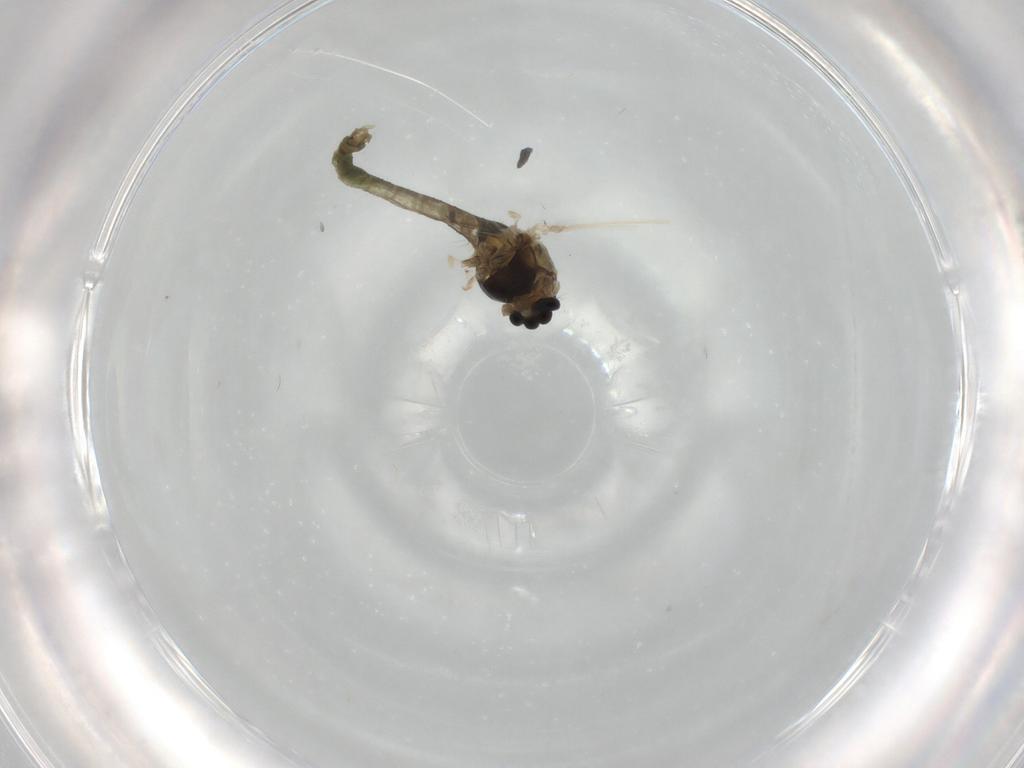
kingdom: Animalia
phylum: Arthropoda
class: Insecta
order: Diptera
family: Chironomidae
